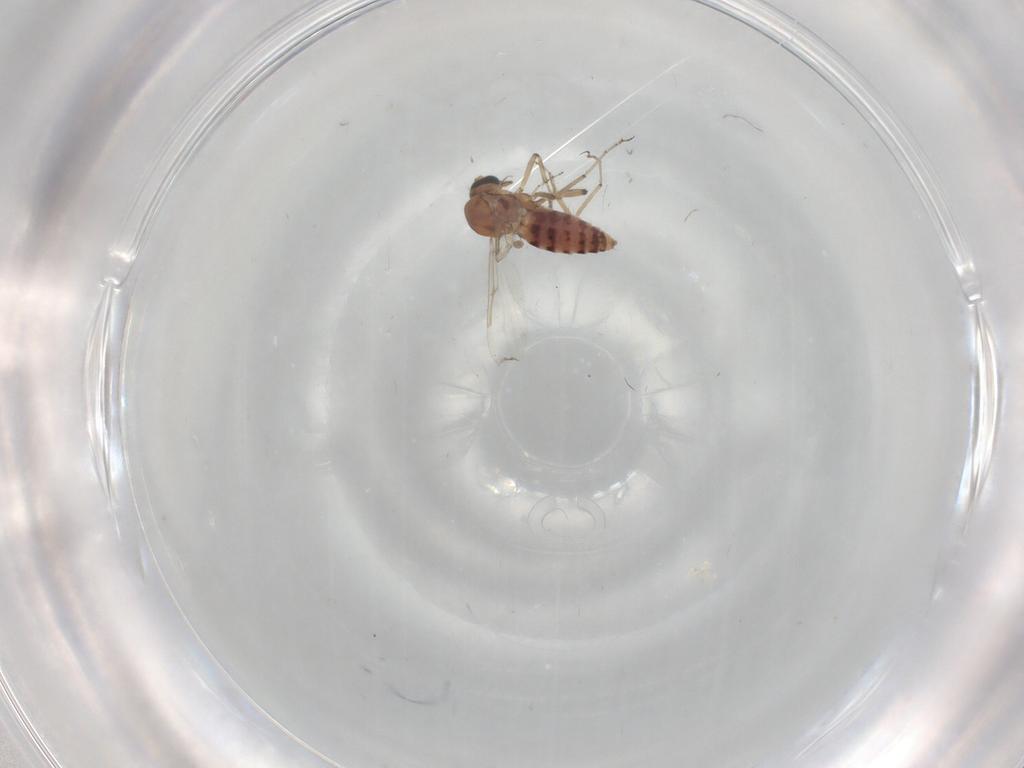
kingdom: Animalia
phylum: Arthropoda
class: Insecta
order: Diptera
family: Ceratopogonidae
